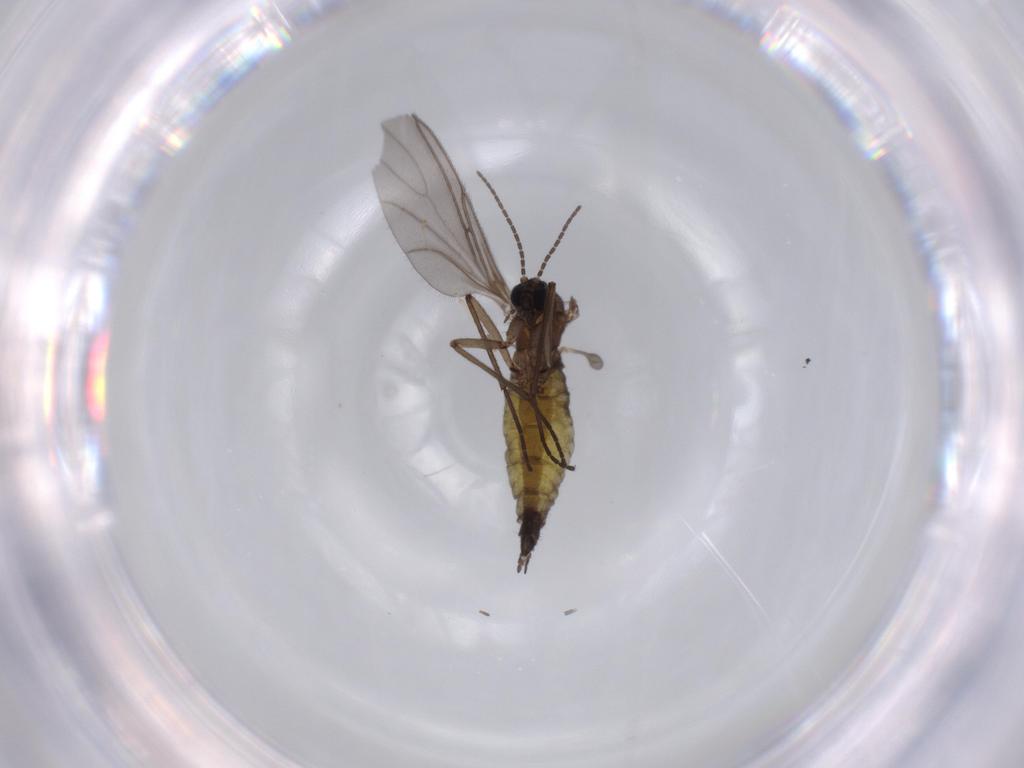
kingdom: Animalia
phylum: Arthropoda
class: Insecta
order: Diptera
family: Sciaridae
